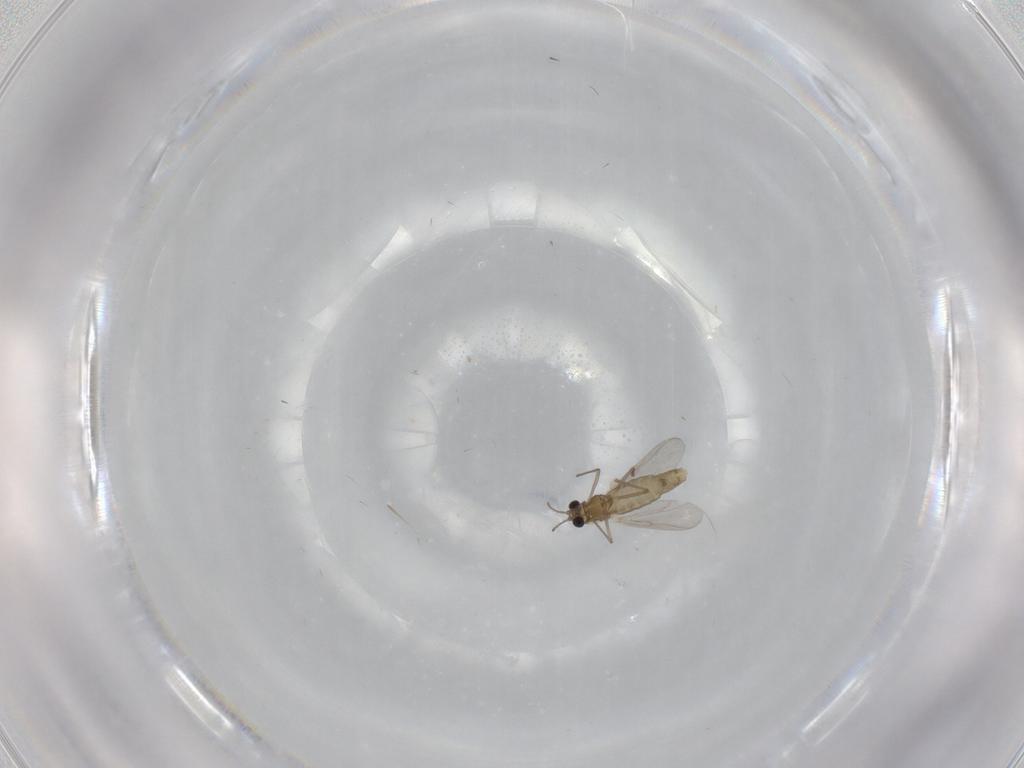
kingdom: Animalia
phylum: Arthropoda
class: Insecta
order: Diptera
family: Chironomidae
